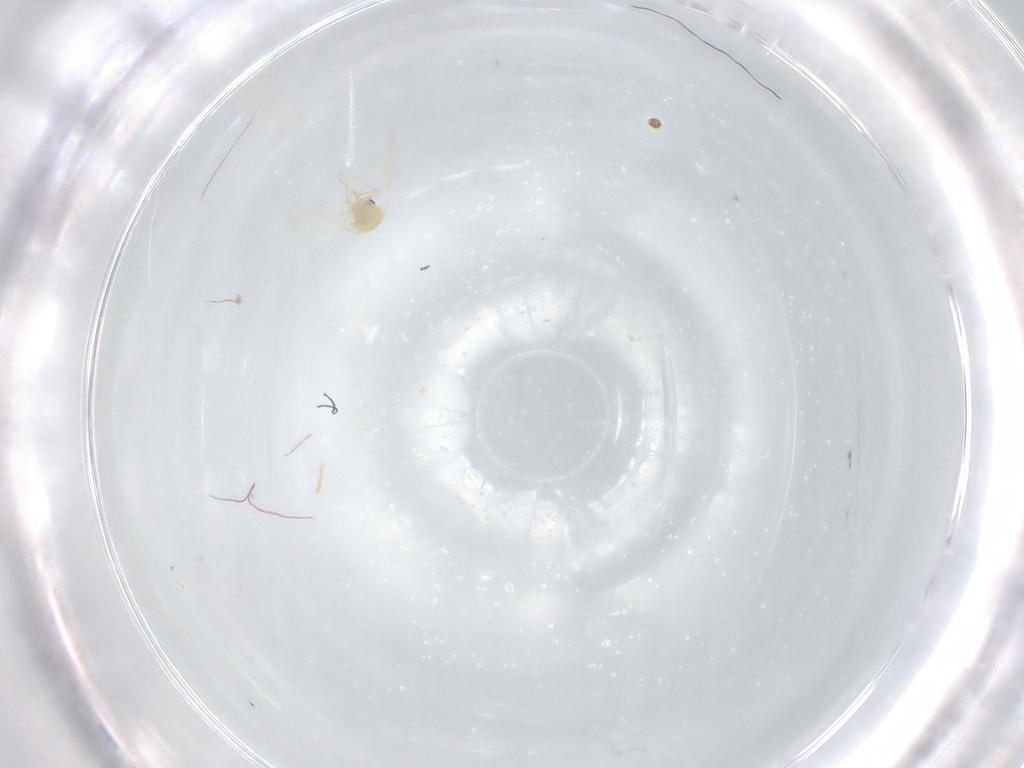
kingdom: Animalia
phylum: Arthropoda
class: Insecta
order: Hemiptera
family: Aleyrodidae
